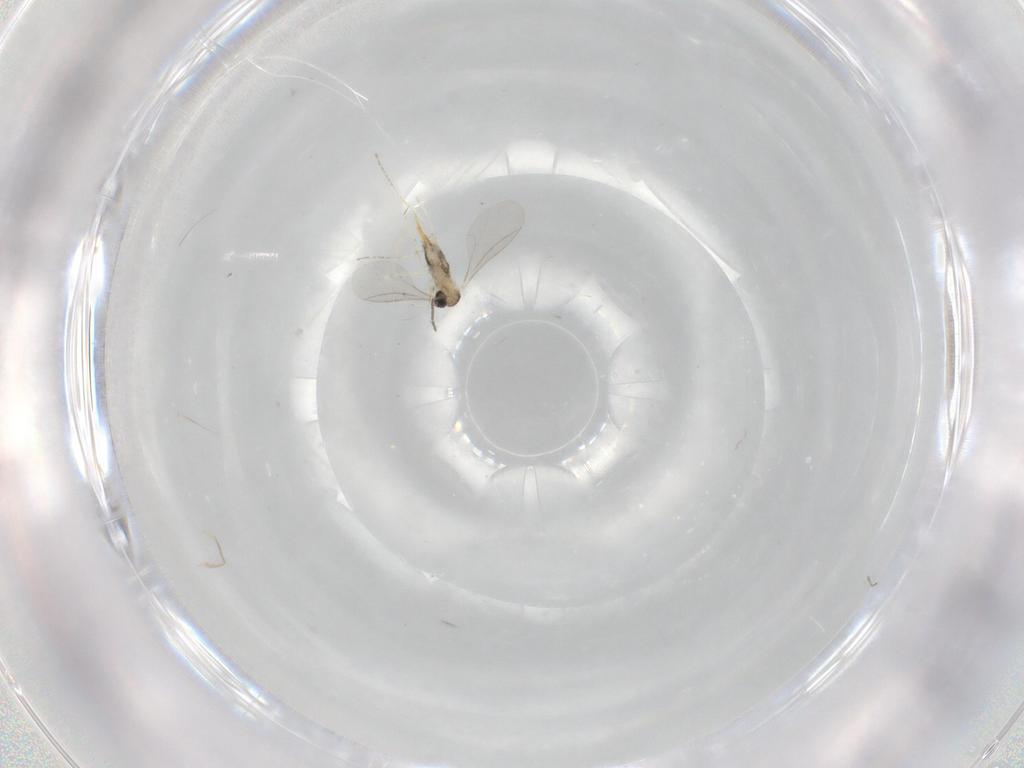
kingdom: Animalia
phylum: Arthropoda
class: Insecta
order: Diptera
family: Cecidomyiidae
